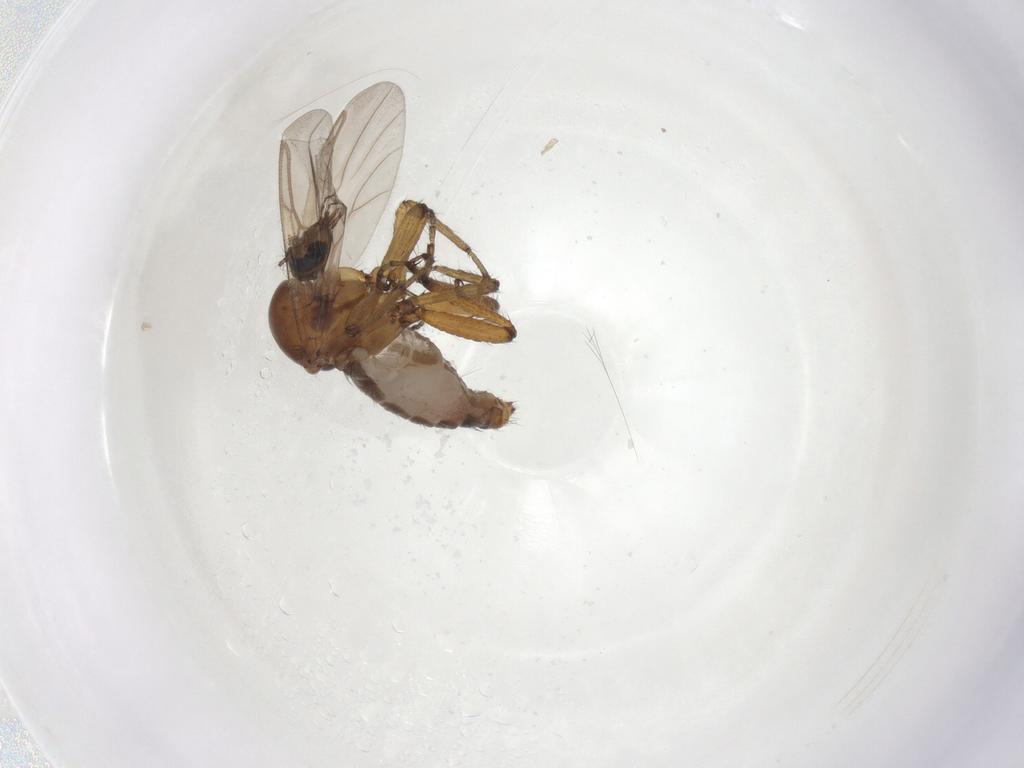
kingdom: Animalia
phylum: Arthropoda
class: Insecta
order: Diptera
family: Ceratopogonidae
